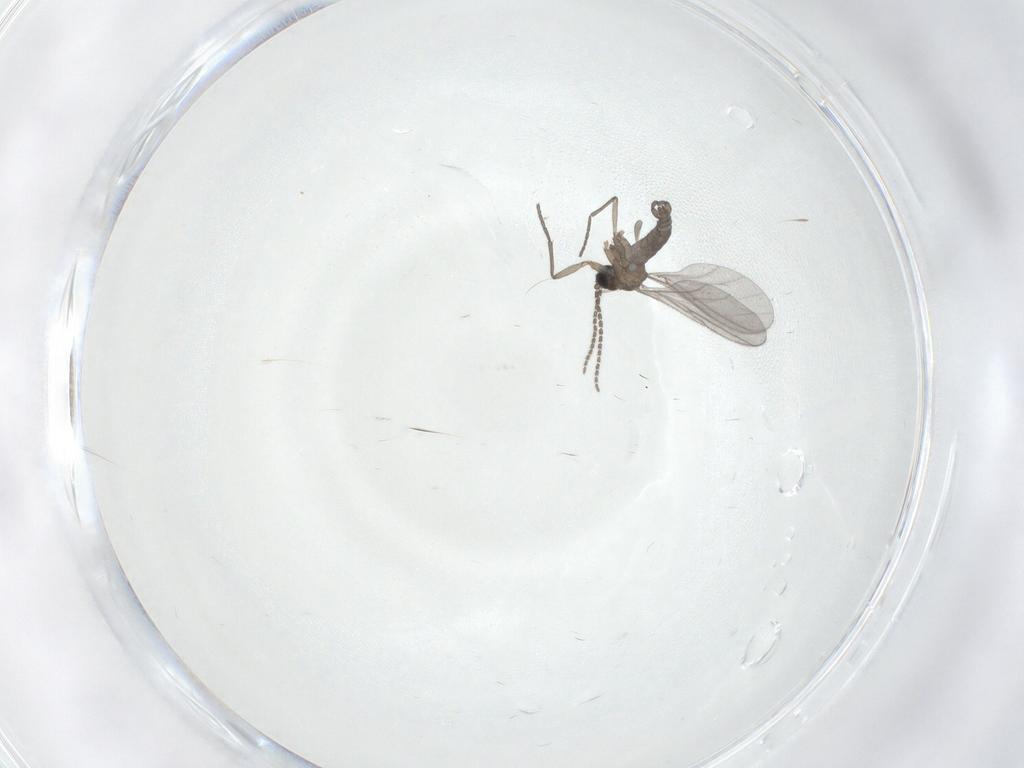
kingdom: Animalia
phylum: Arthropoda
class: Insecta
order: Diptera
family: Sciaridae
